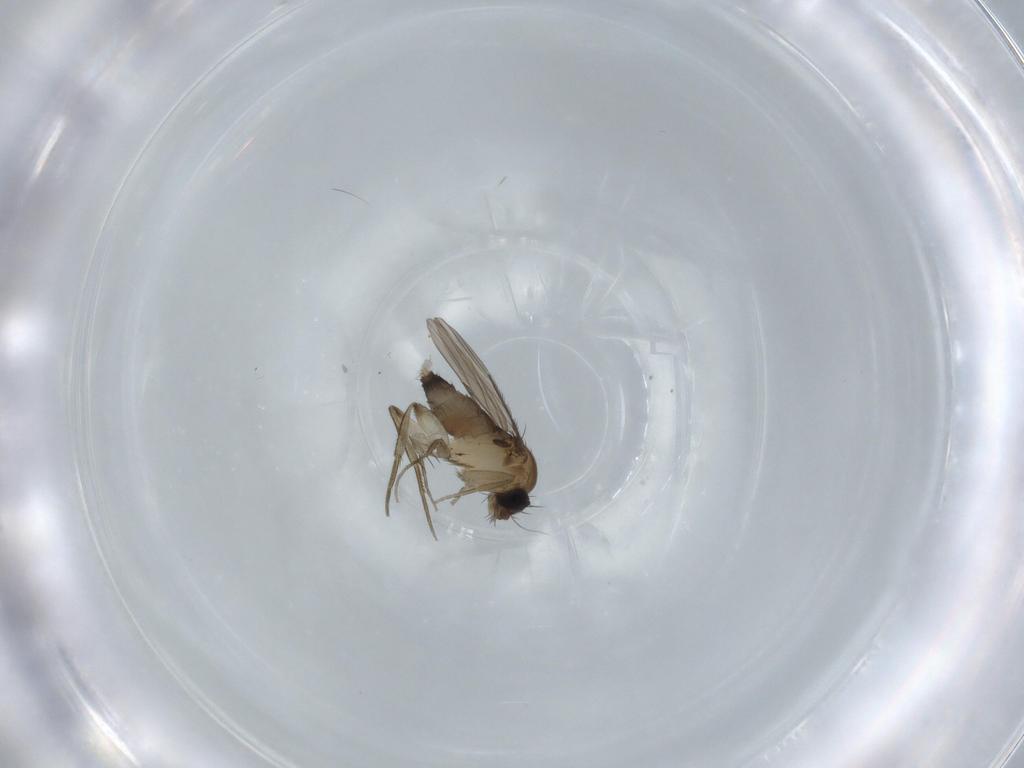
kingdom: Animalia
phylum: Arthropoda
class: Insecta
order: Diptera
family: Phoridae
